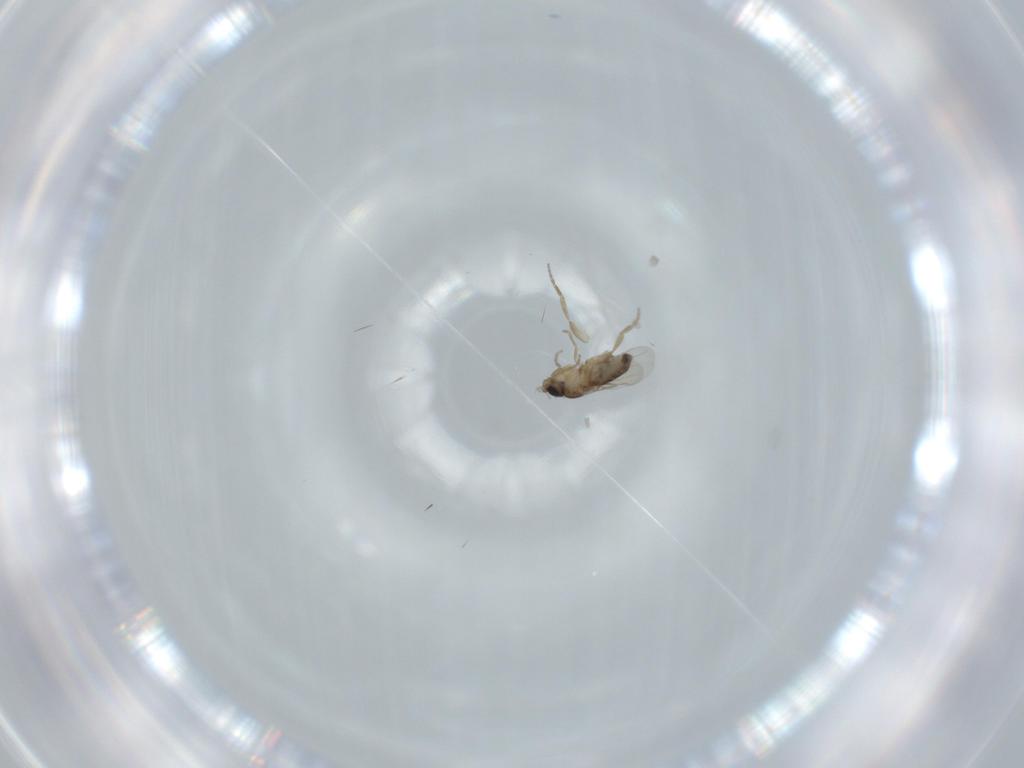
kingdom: Animalia
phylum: Arthropoda
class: Insecta
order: Diptera
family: Phoridae
